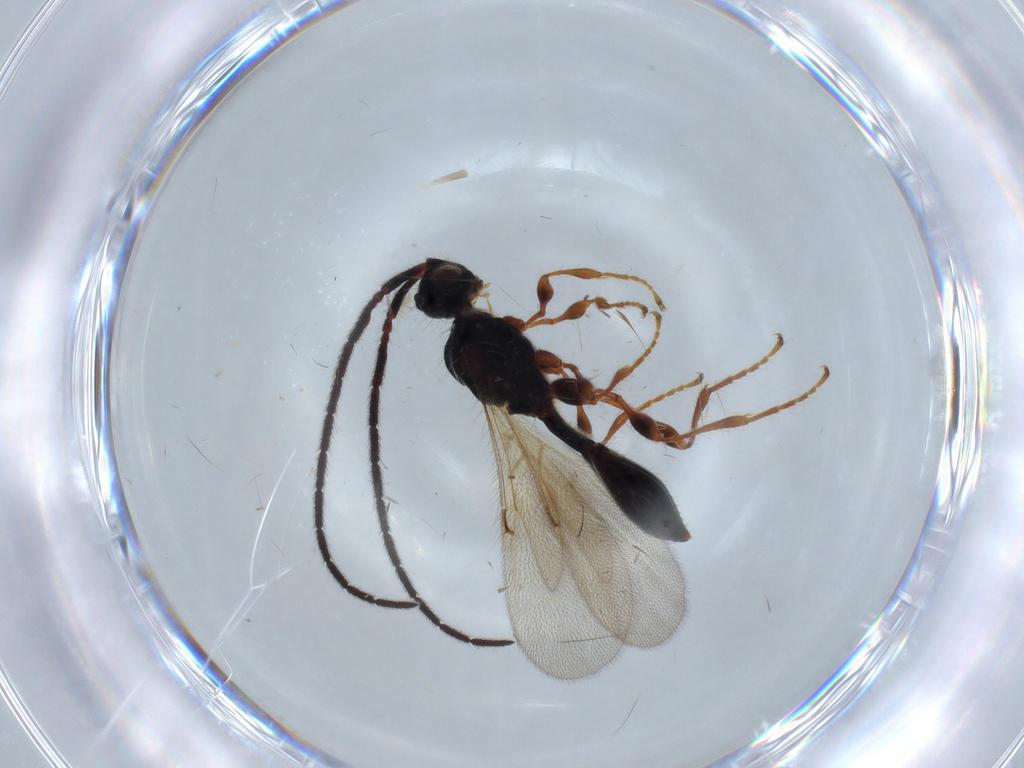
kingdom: Animalia
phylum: Arthropoda
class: Insecta
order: Hymenoptera
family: Diapriidae
